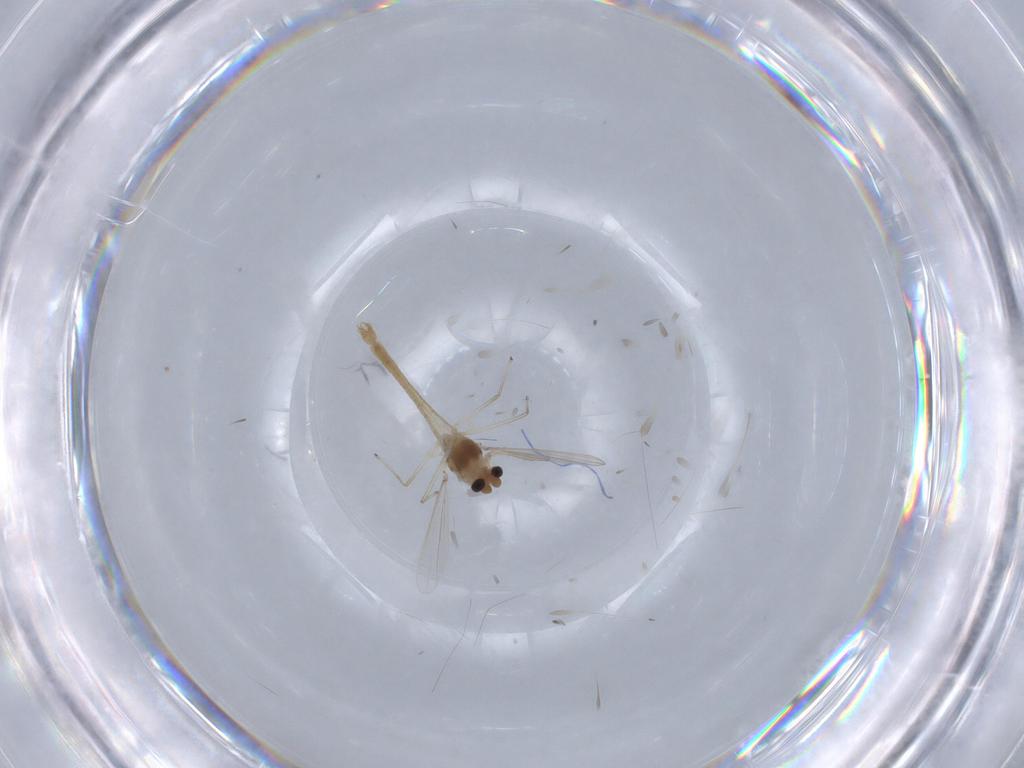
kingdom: Animalia
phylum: Arthropoda
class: Insecta
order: Diptera
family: Chironomidae
